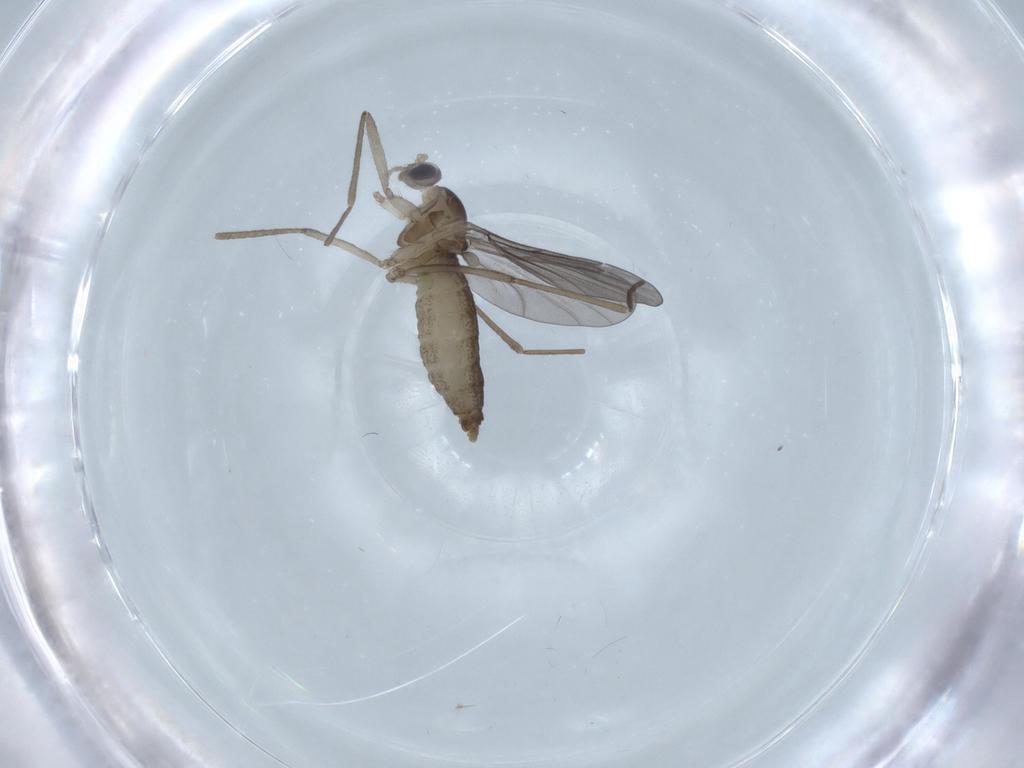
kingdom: Animalia
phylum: Arthropoda
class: Insecta
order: Diptera
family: Cecidomyiidae
